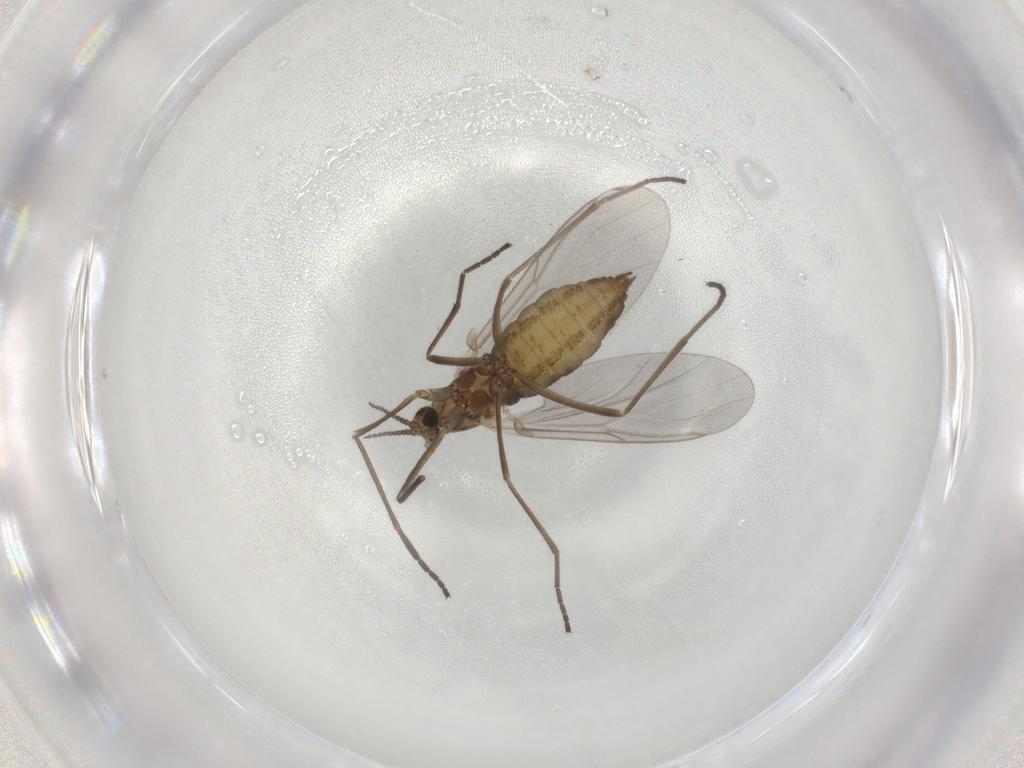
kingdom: Animalia
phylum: Arthropoda
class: Insecta
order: Diptera
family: Cecidomyiidae
